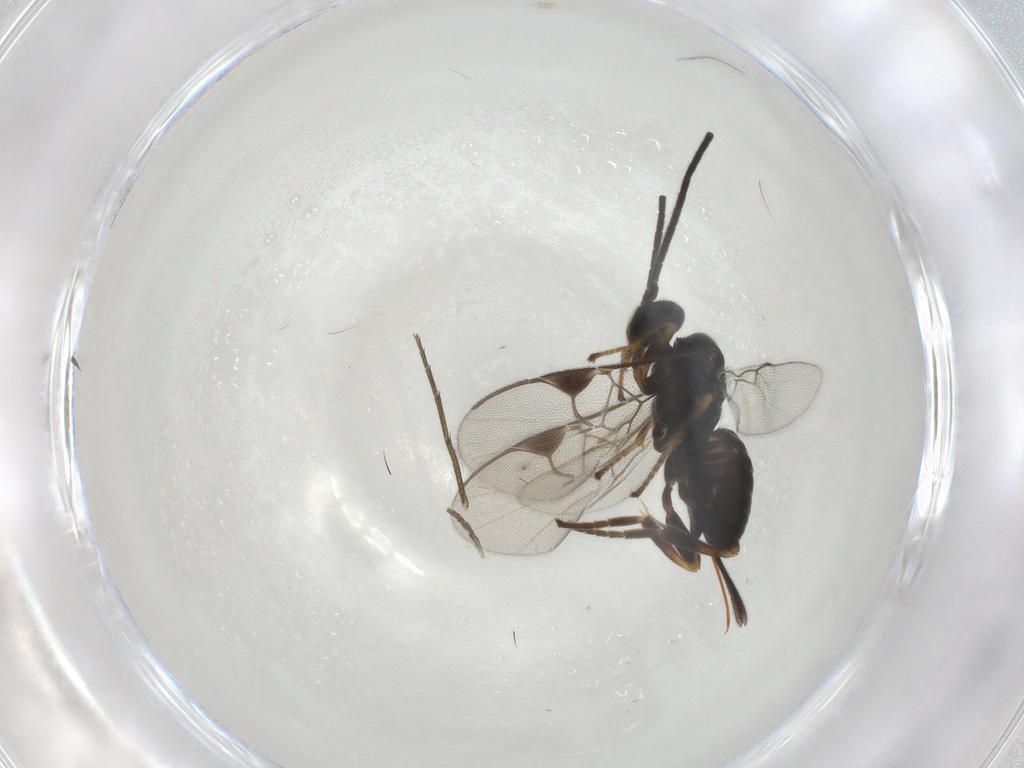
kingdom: Animalia
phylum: Arthropoda
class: Insecta
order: Hymenoptera
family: Braconidae
